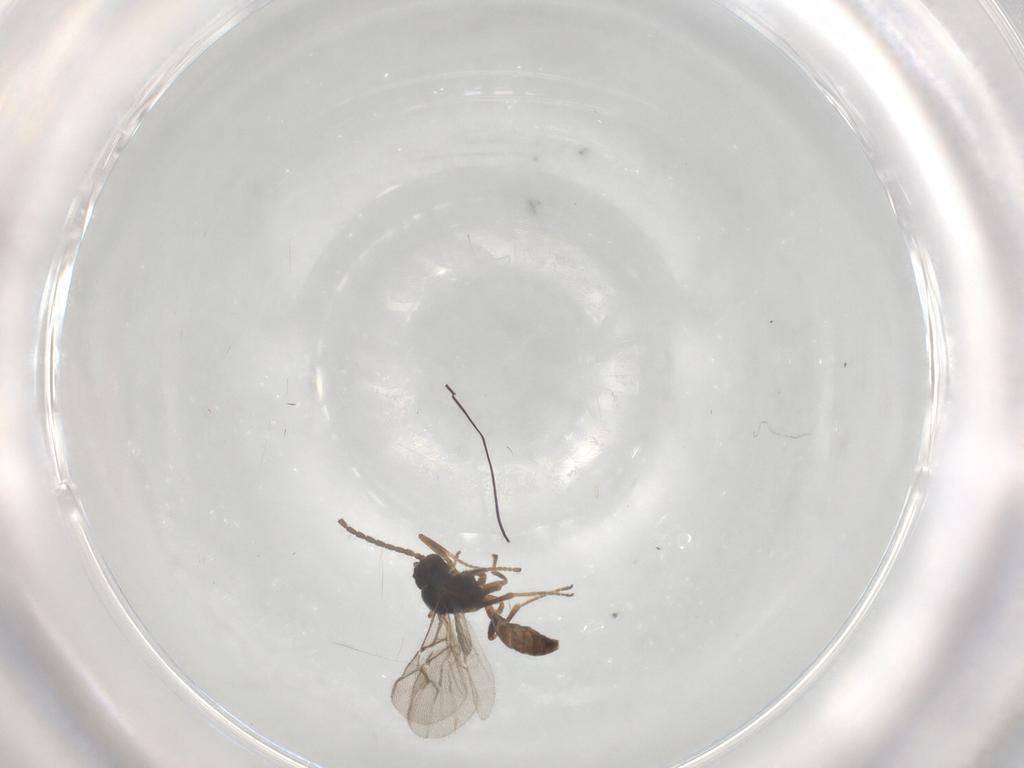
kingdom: Animalia
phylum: Arthropoda
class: Insecta
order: Hymenoptera
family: Braconidae
